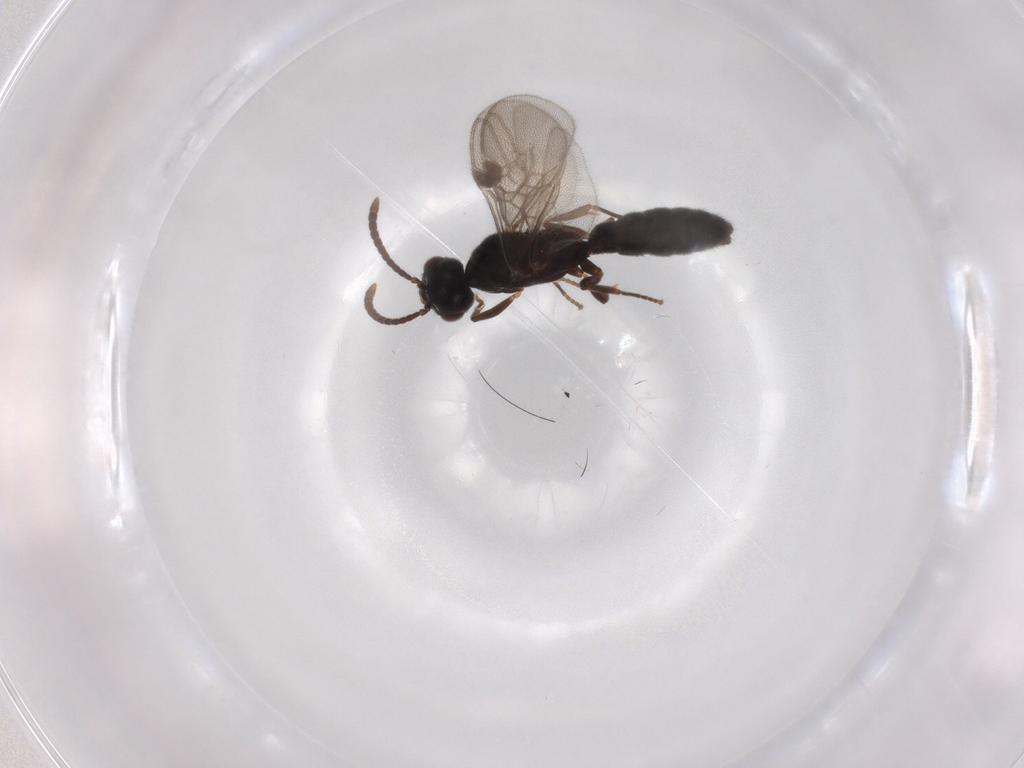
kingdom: Animalia
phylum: Arthropoda
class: Insecta
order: Hymenoptera
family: Formicidae
